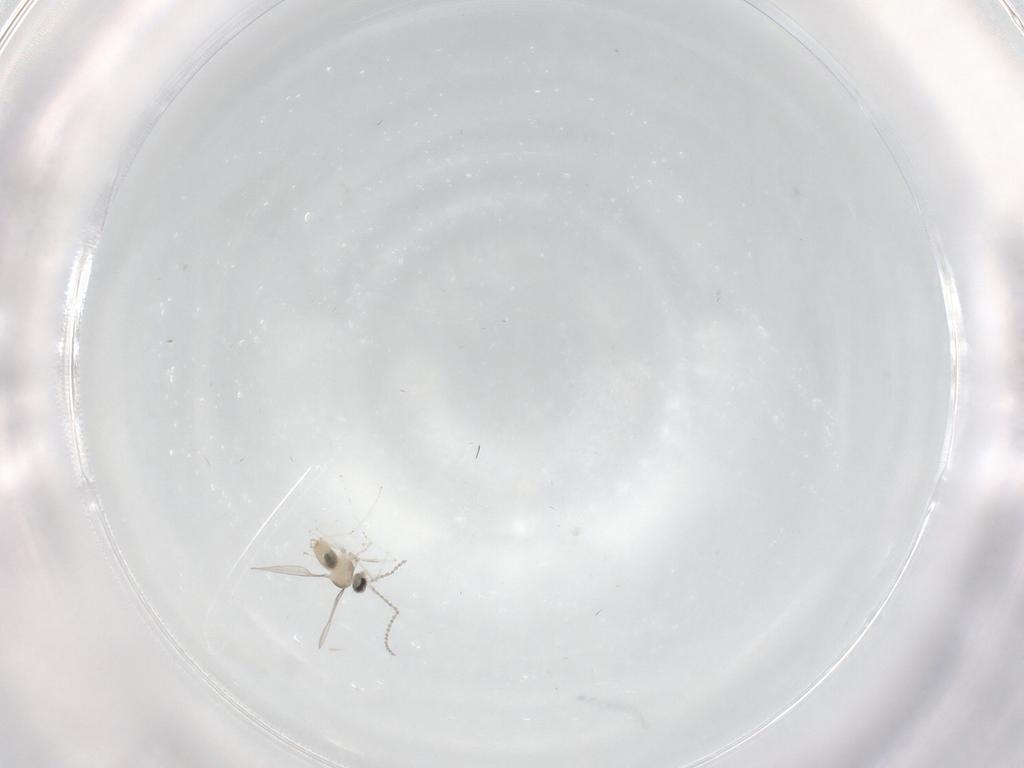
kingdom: Animalia
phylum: Arthropoda
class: Insecta
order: Diptera
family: Cecidomyiidae
